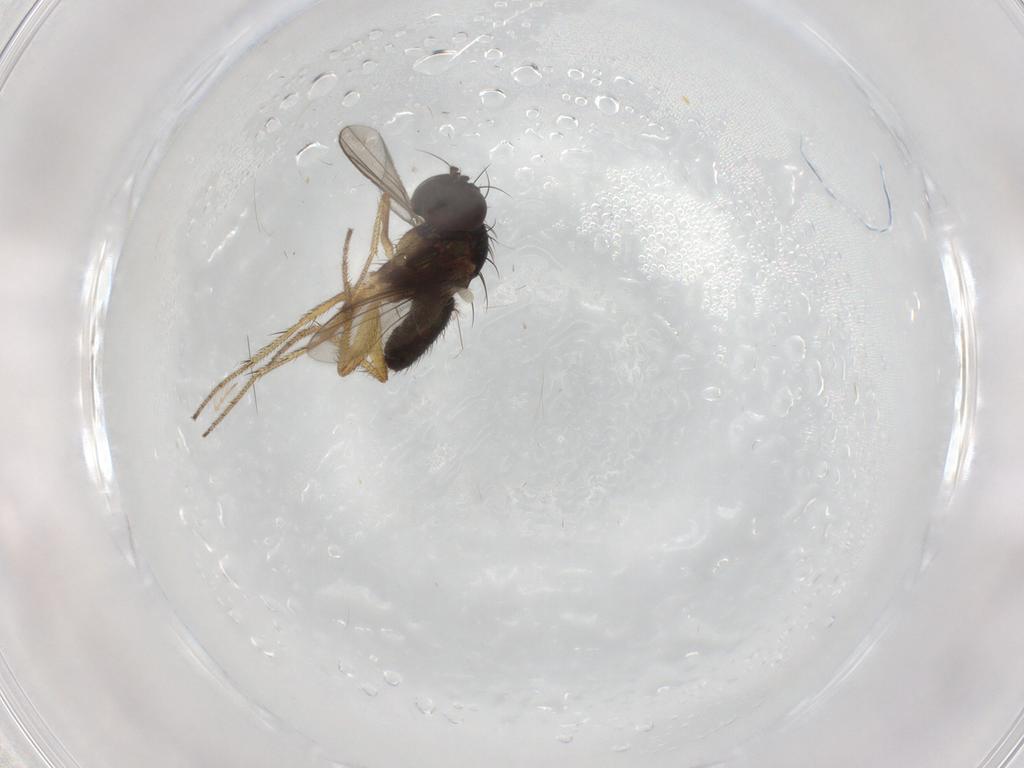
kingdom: Animalia
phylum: Arthropoda
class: Insecta
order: Diptera
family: Dolichopodidae
